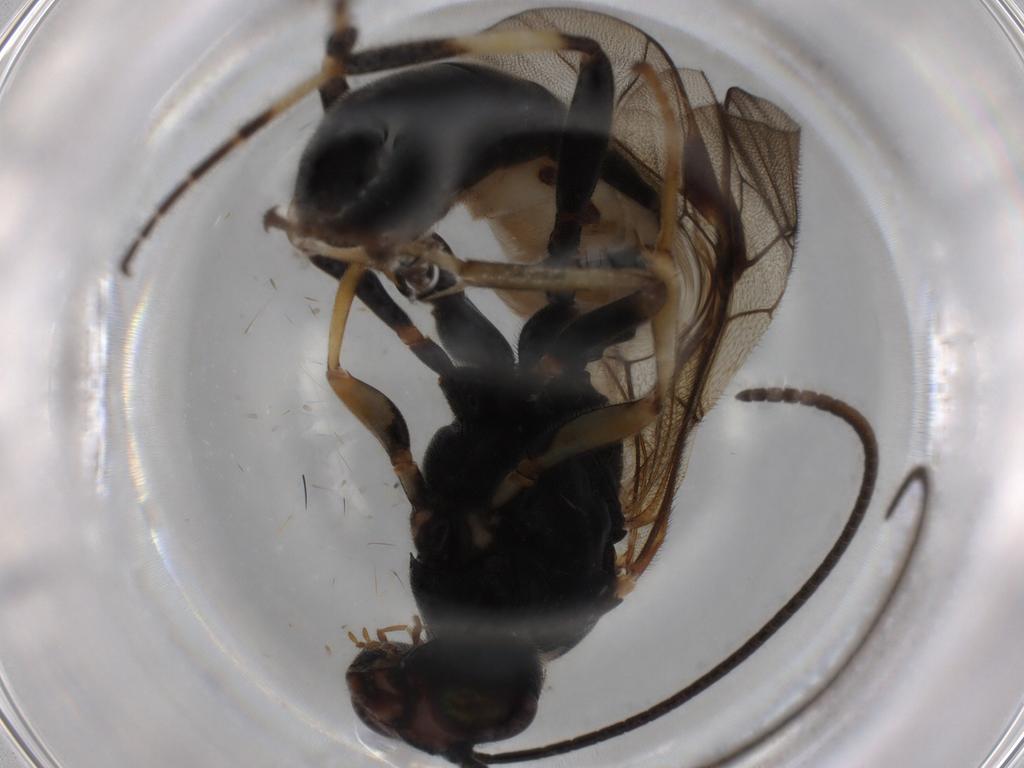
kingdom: Animalia
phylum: Arthropoda
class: Insecta
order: Hymenoptera
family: Ichneumonidae
